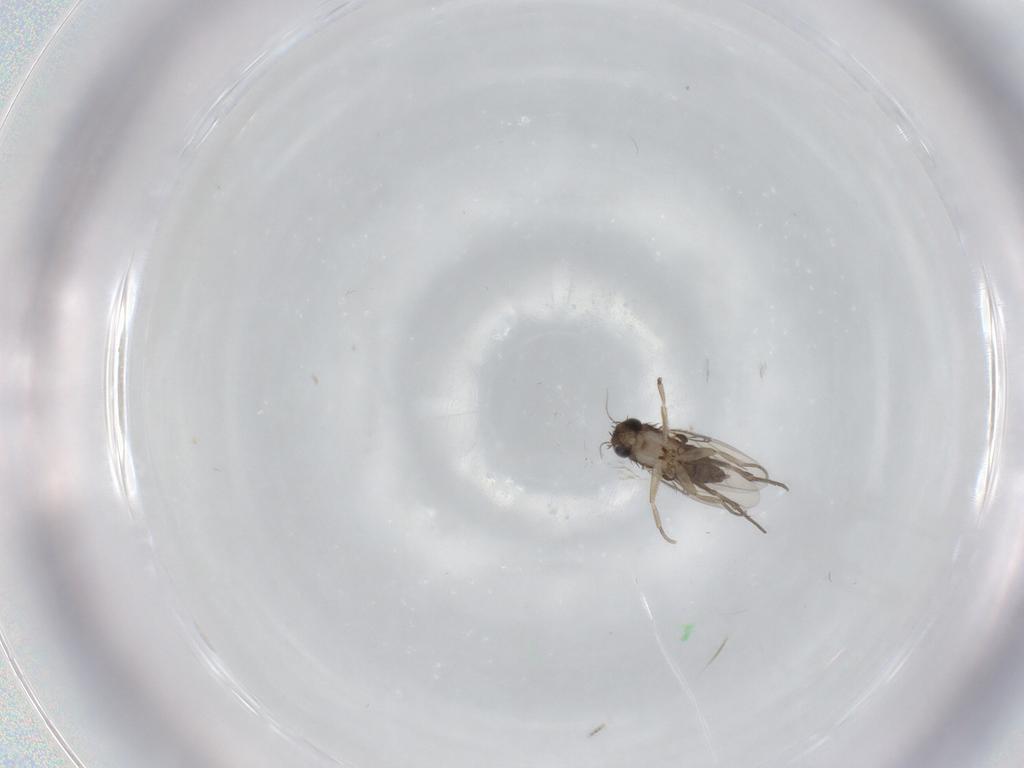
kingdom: Animalia
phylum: Arthropoda
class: Insecta
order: Diptera
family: Phoridae
